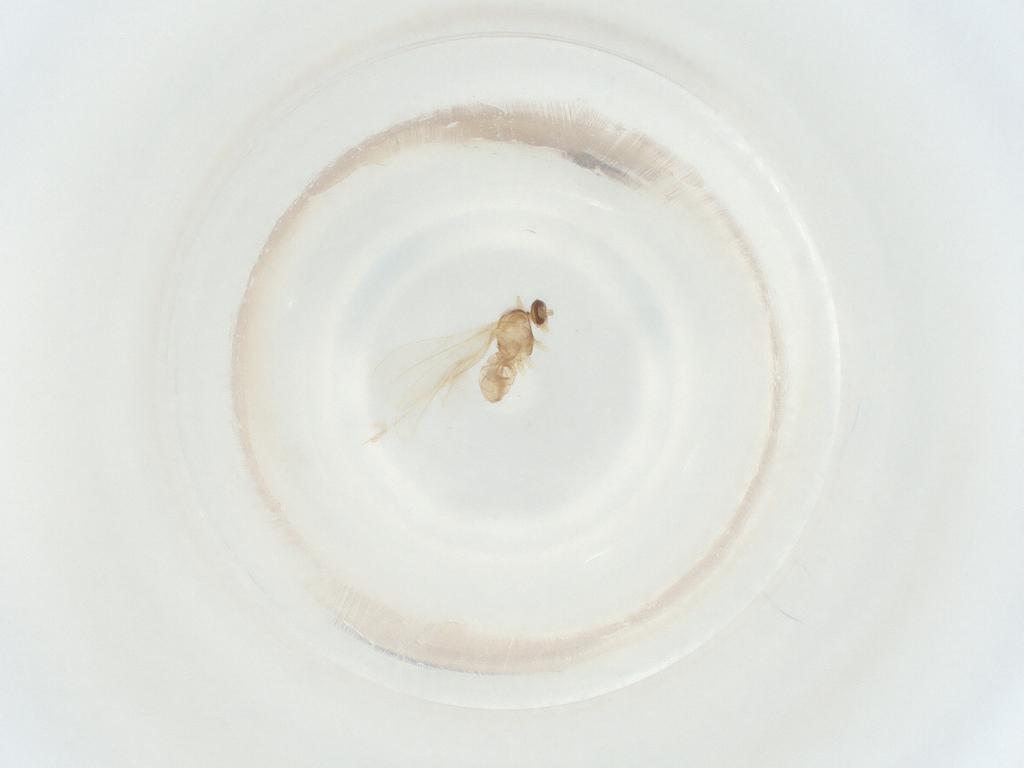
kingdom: Animalia
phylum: Arthropoda
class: Insecta
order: Diptera
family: Cecidomyiidae
